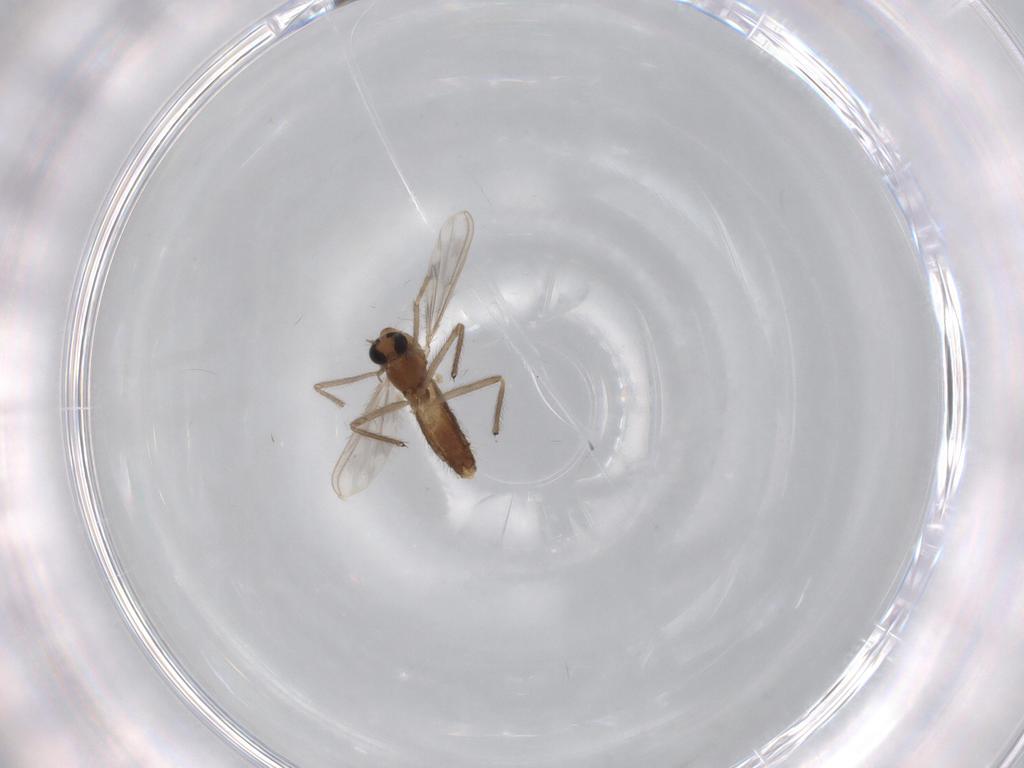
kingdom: Animalia
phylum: Arthropoda
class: Insecta
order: Diptera
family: Chironomidae
